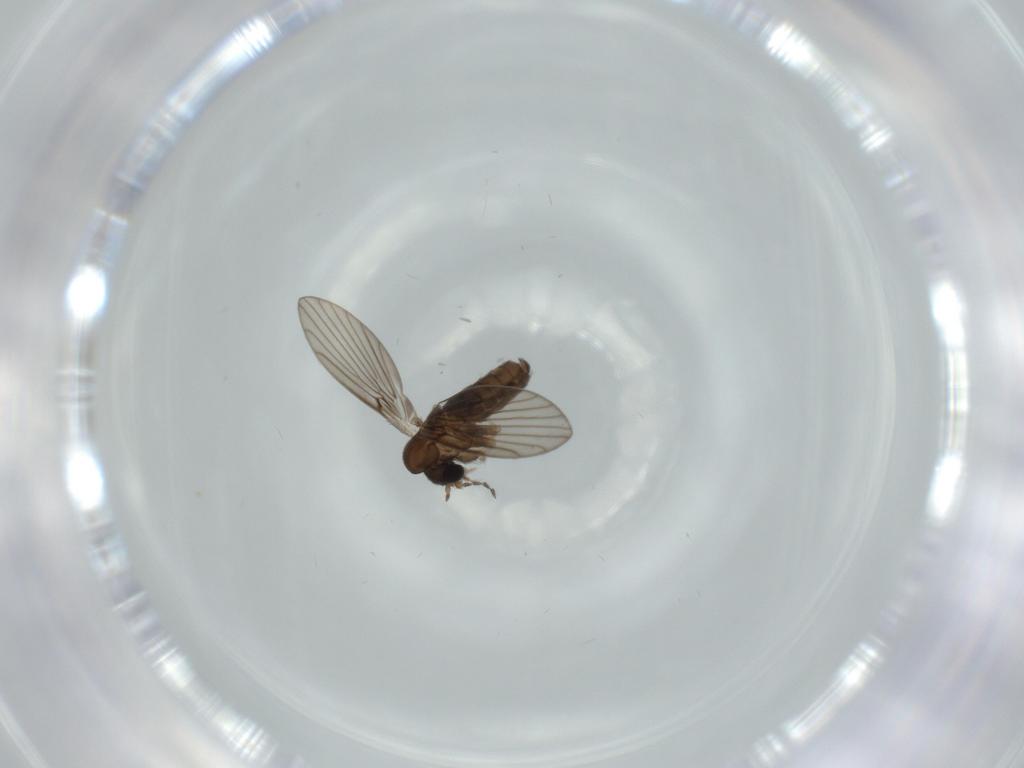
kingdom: Animalia
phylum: Arthropoda
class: Insecta
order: Diptera
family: Psychodidae
